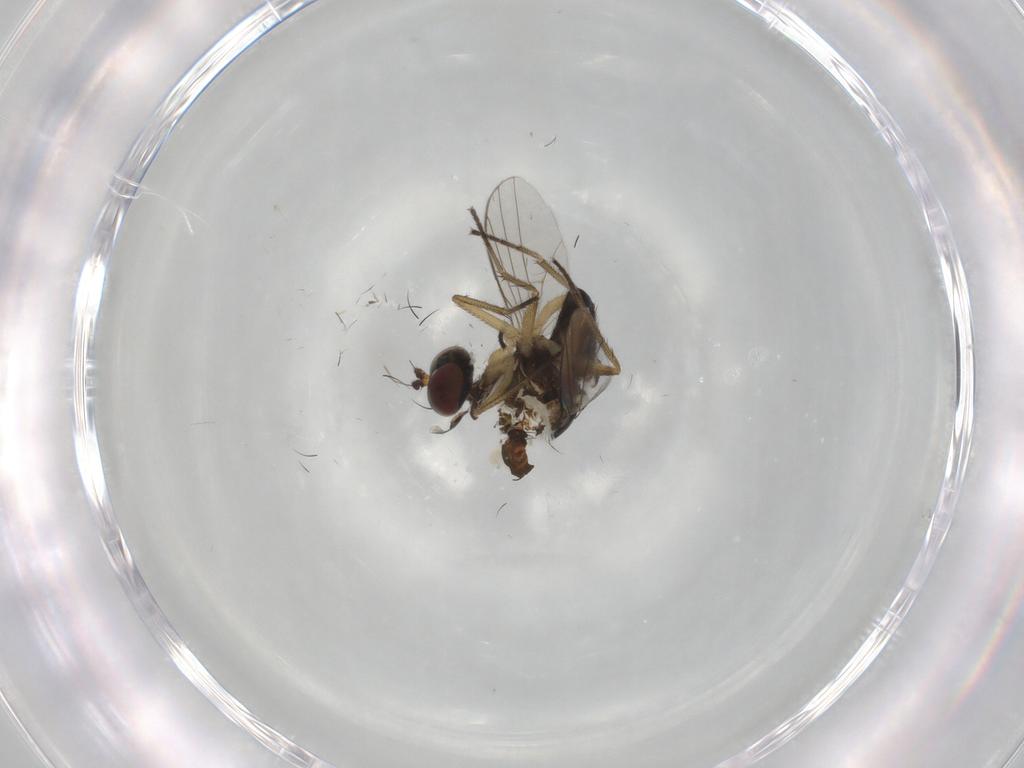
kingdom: Animalia
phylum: Arthropoda
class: Insecta
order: Diptera
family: Dolichopodidae
